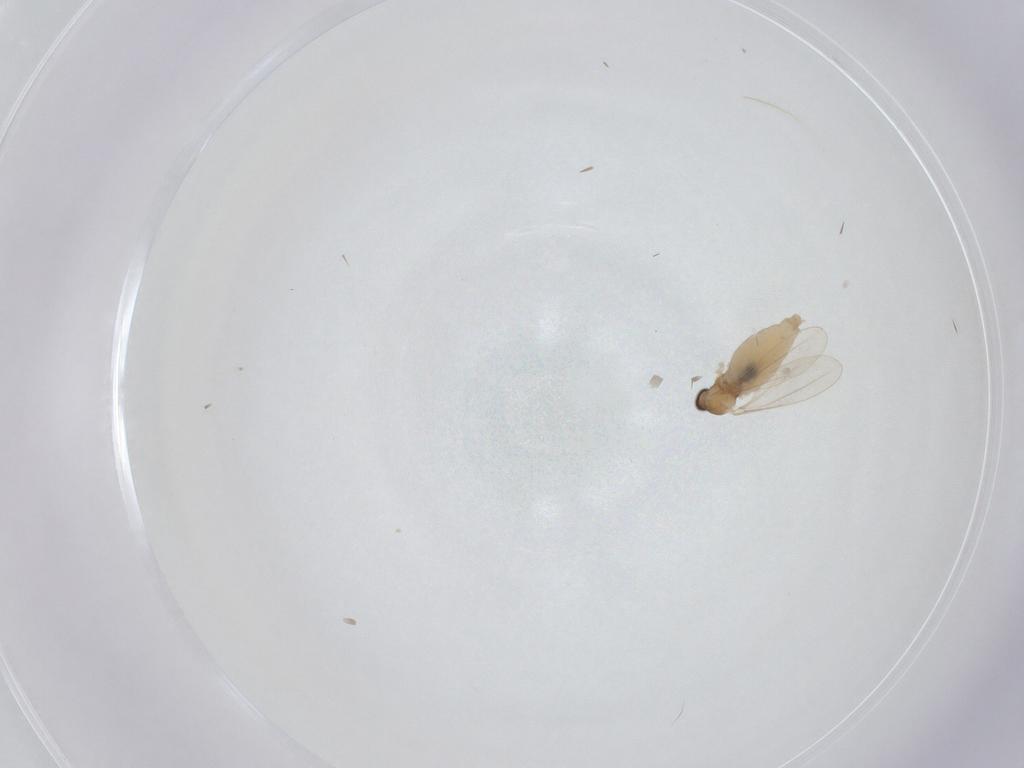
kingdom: Animalia
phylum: Arthropoda
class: Insecta
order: Diptera
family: Cecidomyiidae
